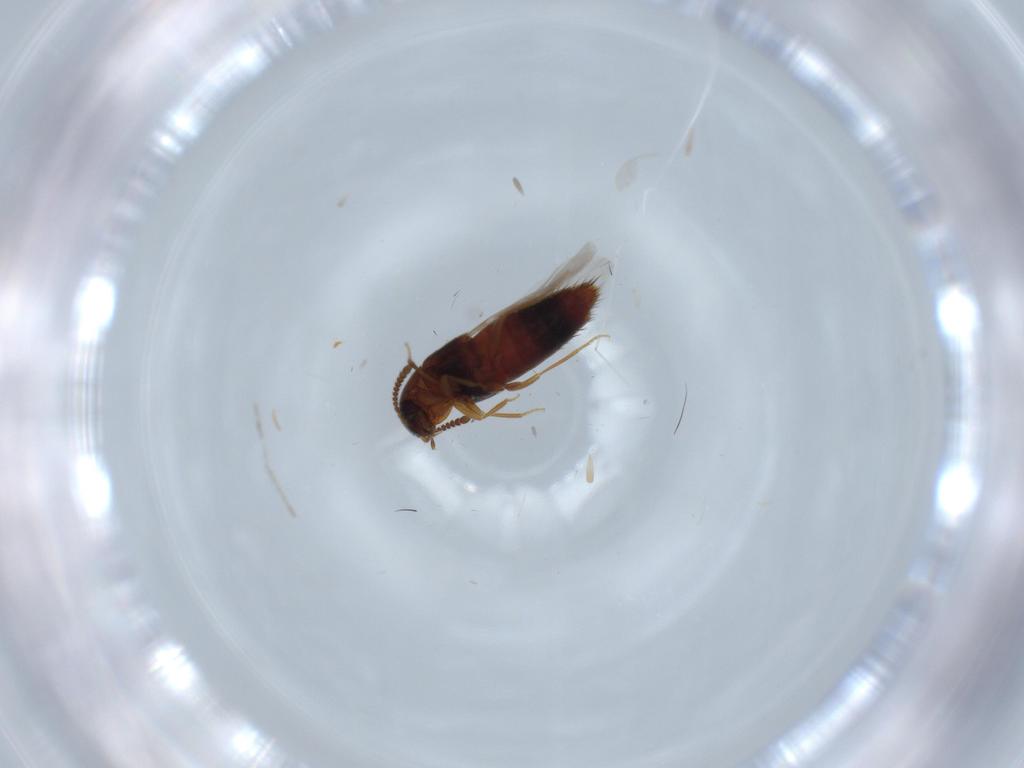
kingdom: Animalia
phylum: Arthropoda
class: Insecta
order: Coleoptera
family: Staphylinidae
